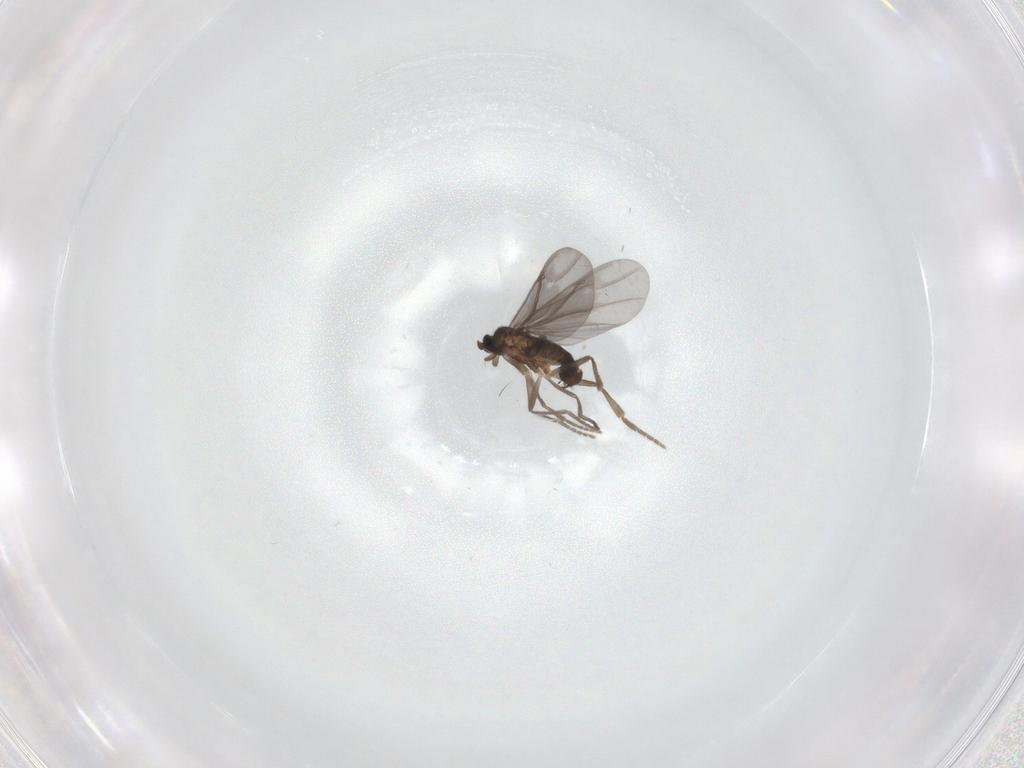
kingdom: Animalia
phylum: Arthropoda
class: Insecta
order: Diptera
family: Phoridae
